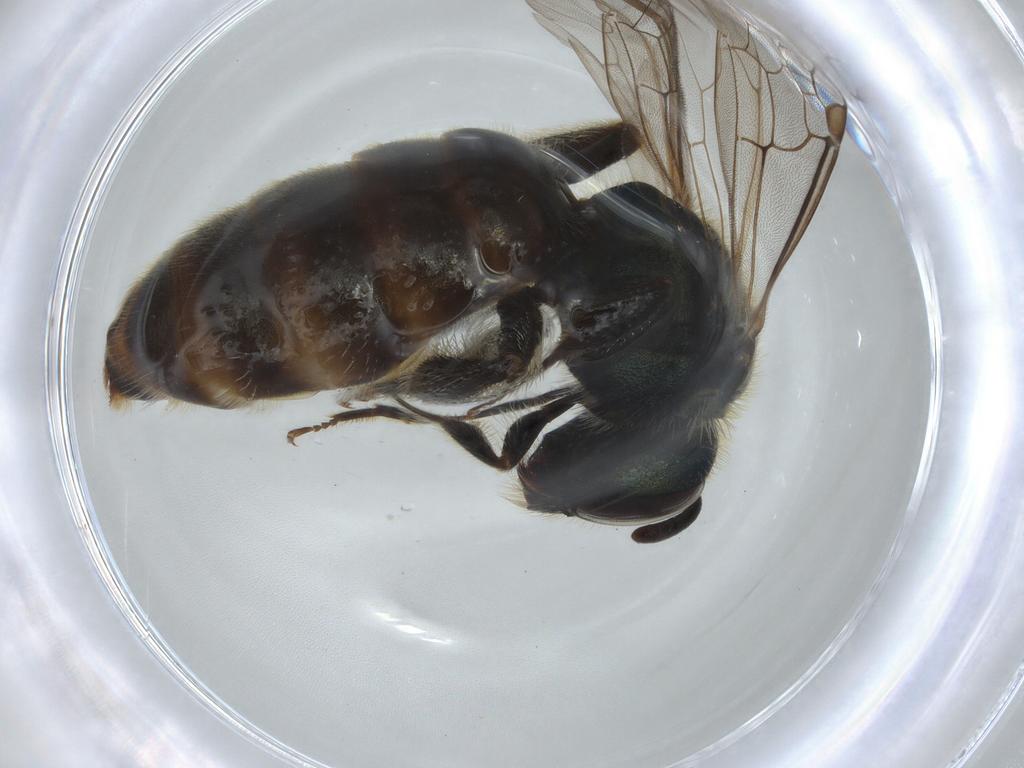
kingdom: Animalia
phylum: Arthropoda
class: Insecta
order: Hymenoptera
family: Halictidae
